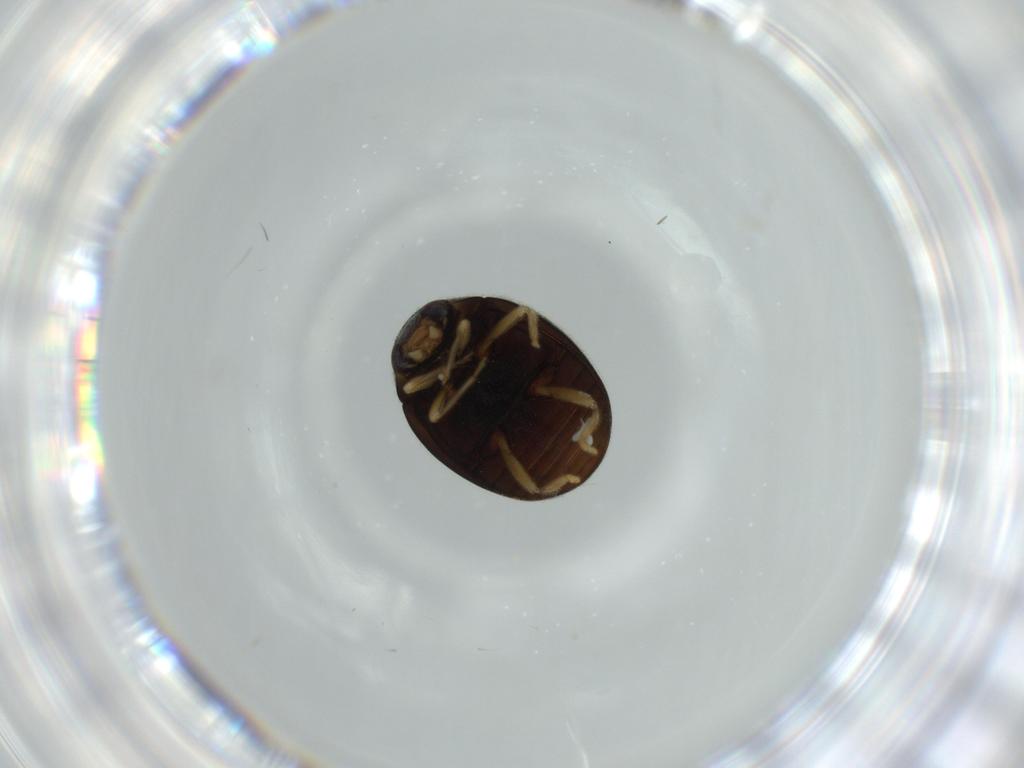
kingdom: Animalia
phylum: Arthropoda
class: Insecta
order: Coleoptera
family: Coccinellidae
